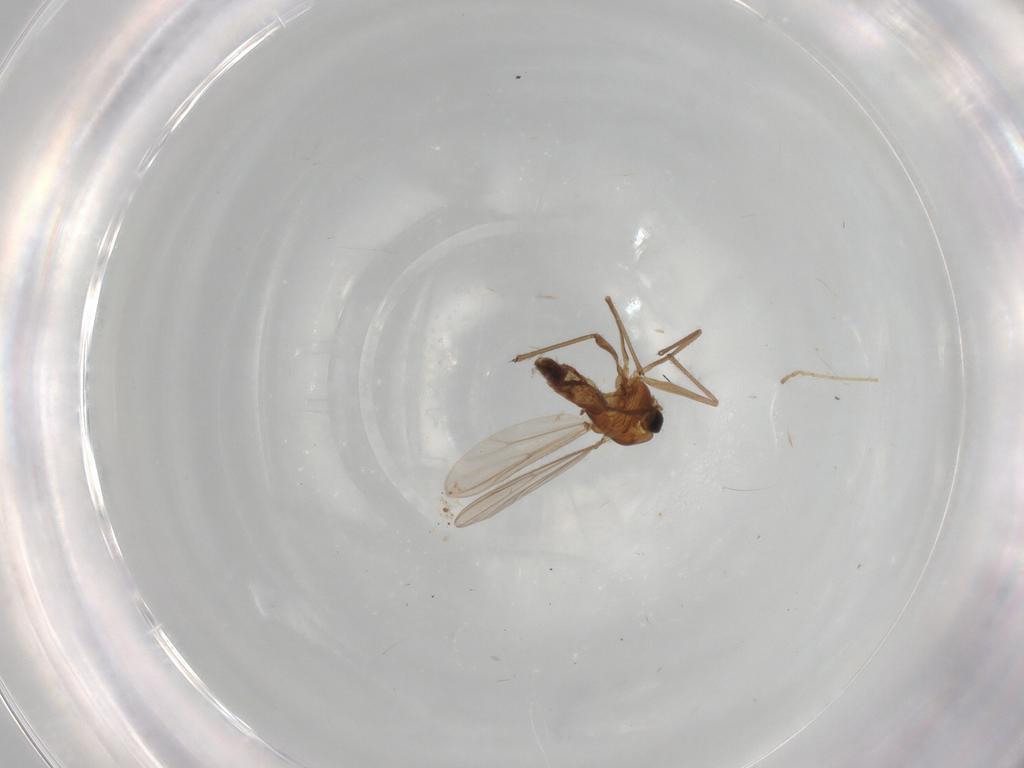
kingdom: Animalia
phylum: Arthropoda
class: Insecta
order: Diptera
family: Chironomidae
